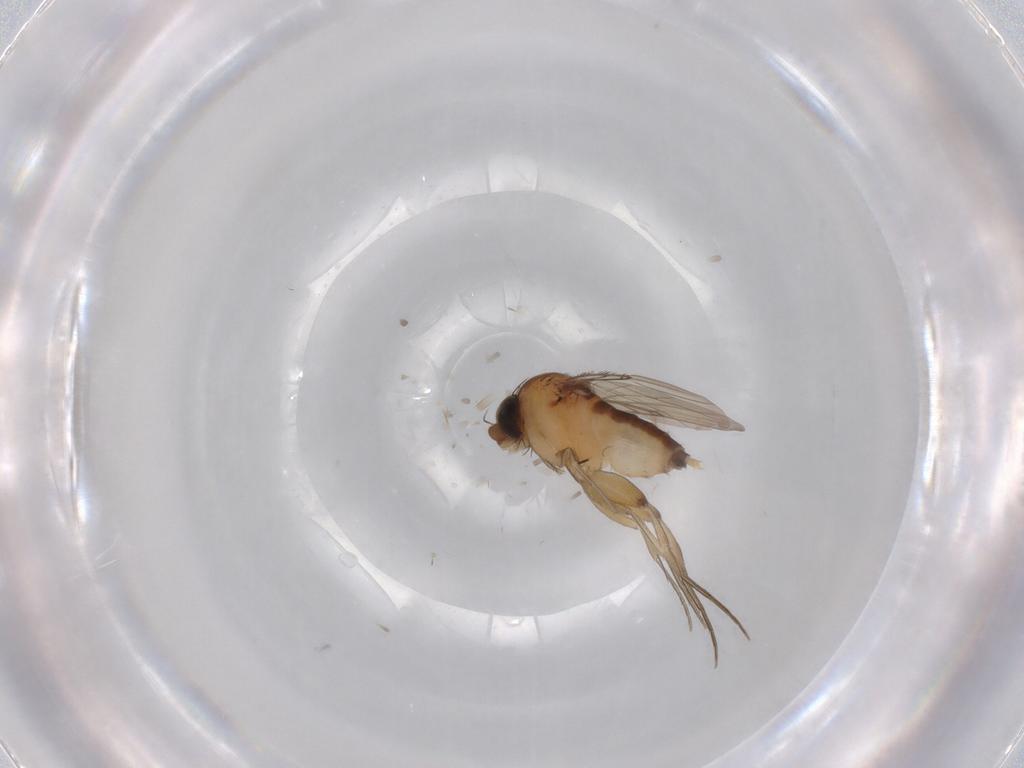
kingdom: Animalia
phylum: Arthropoda
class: Insecta
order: Diptera
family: Phoridae
